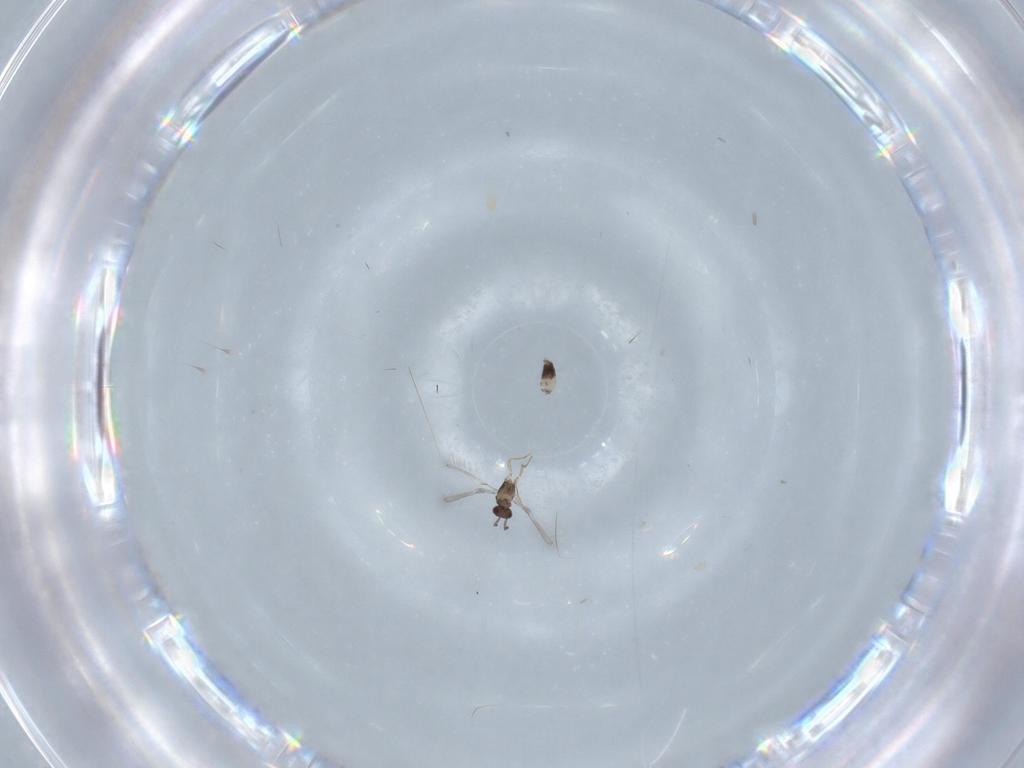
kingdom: Animalia
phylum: Arthropoda
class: Insecta
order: Hymenoptera
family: Mymaridae
